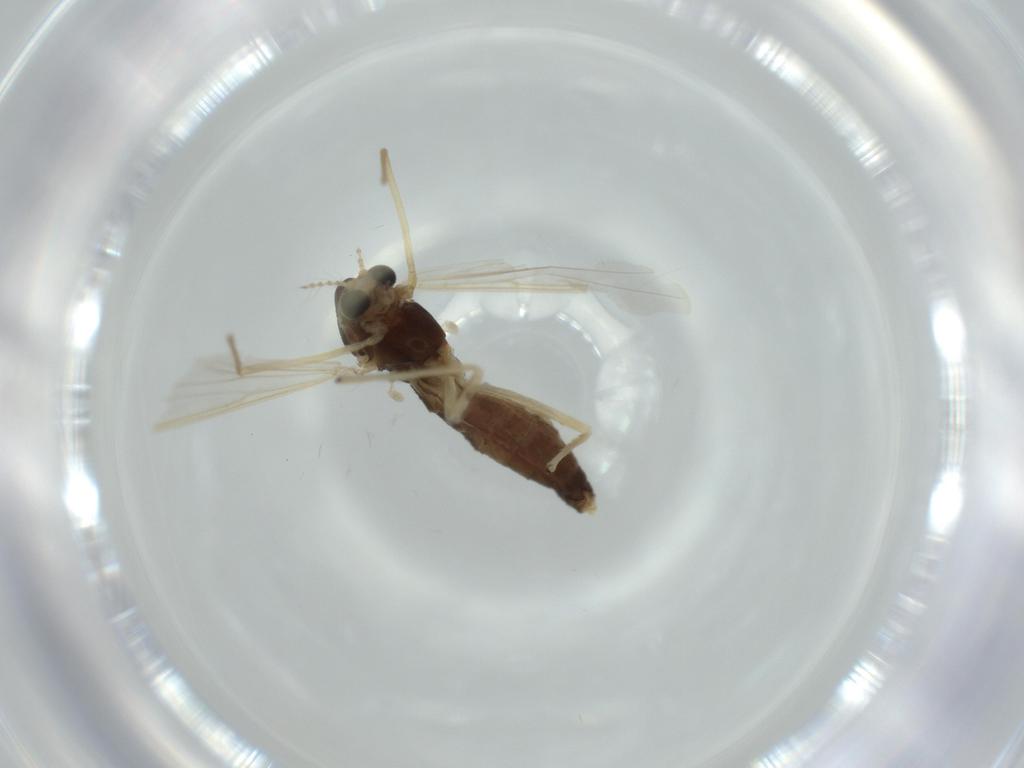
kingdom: Animalia
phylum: Arthropoda
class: Insecta
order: Diptera
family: Chironomidae
